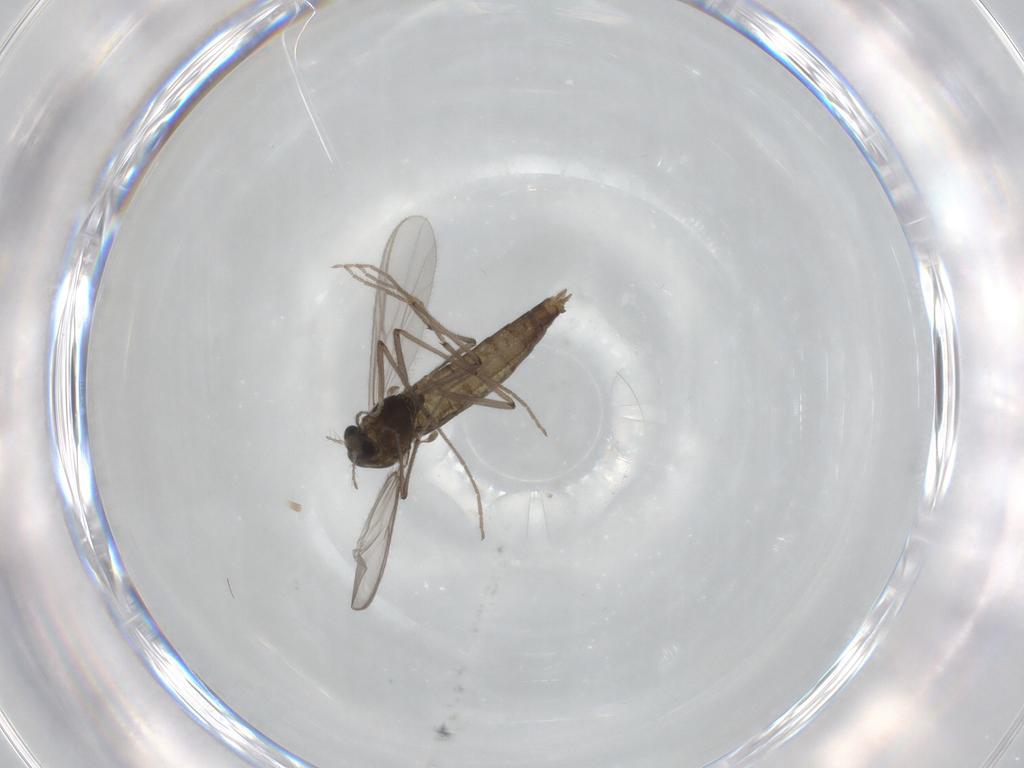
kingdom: Animalia
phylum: Arthropoda
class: Insecta
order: Diptera
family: Chironomidae
